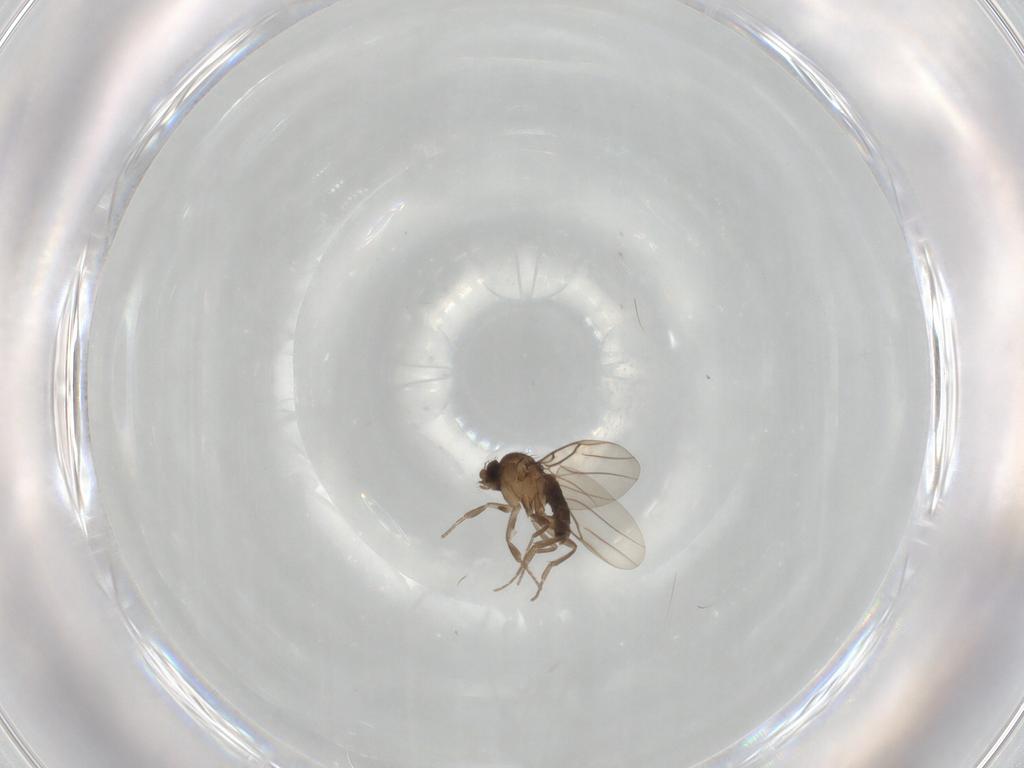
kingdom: Animalia
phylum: Arthropoda
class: Insecta
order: Diptera
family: Phoridae
